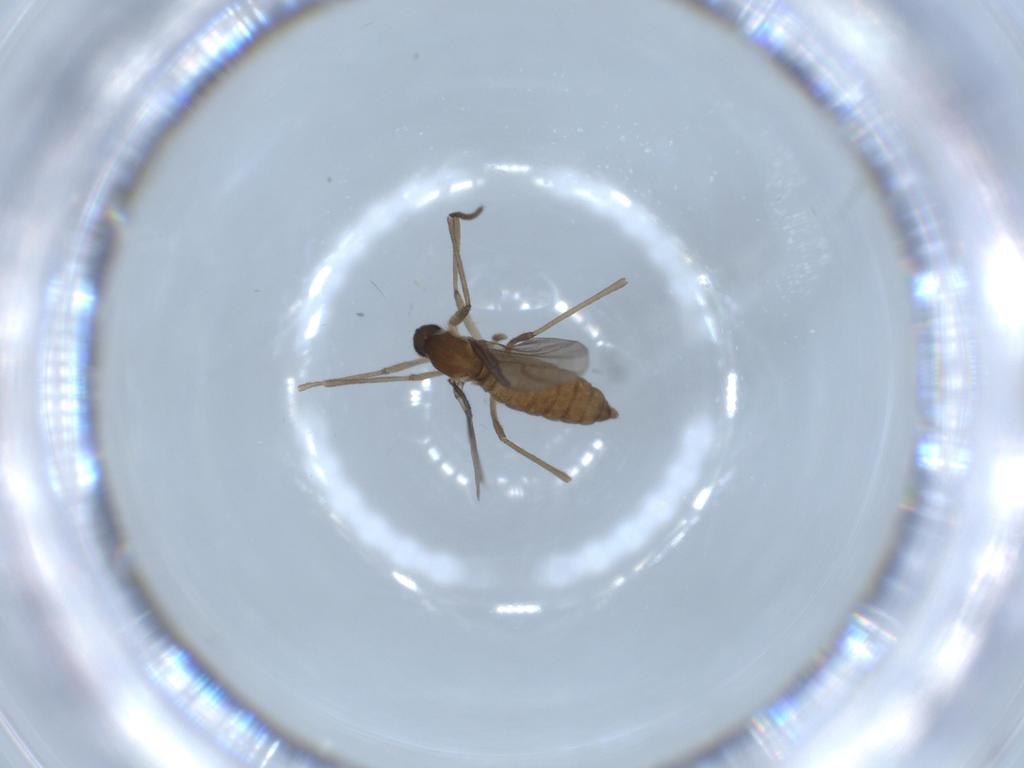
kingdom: Animalia
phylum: Arthropoda
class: Insecta
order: Diptera
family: Cecidomyiidae
